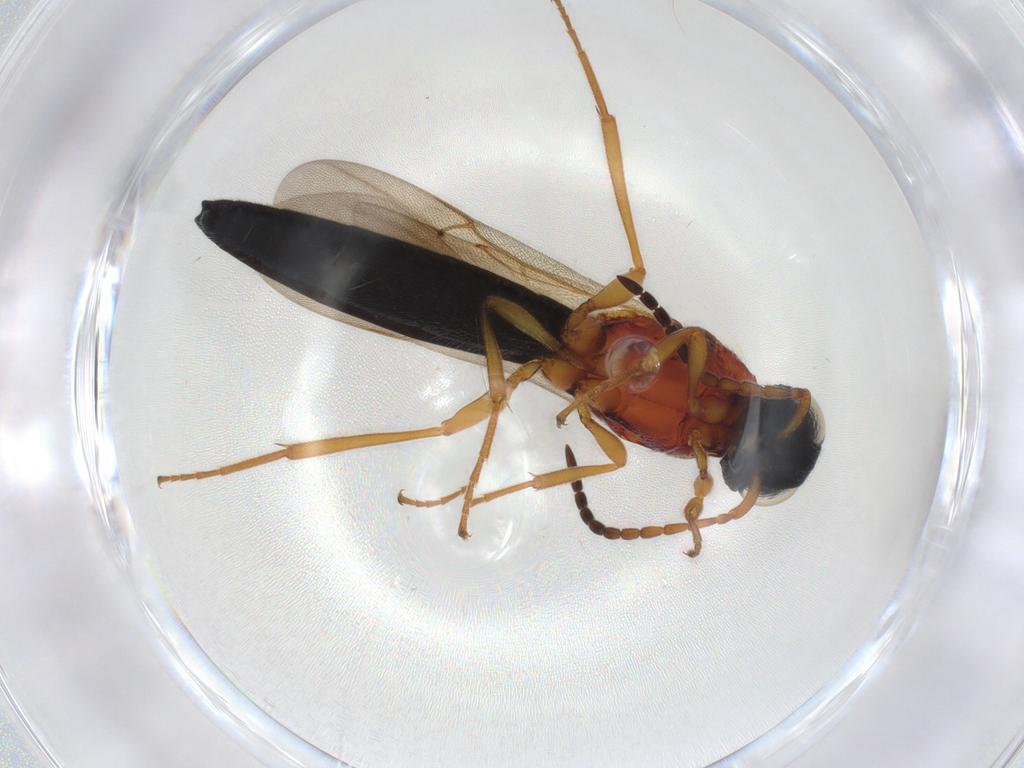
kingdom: Animalia
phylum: Arthropoda
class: Insecta
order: Hymenoptera
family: Scelionidae
